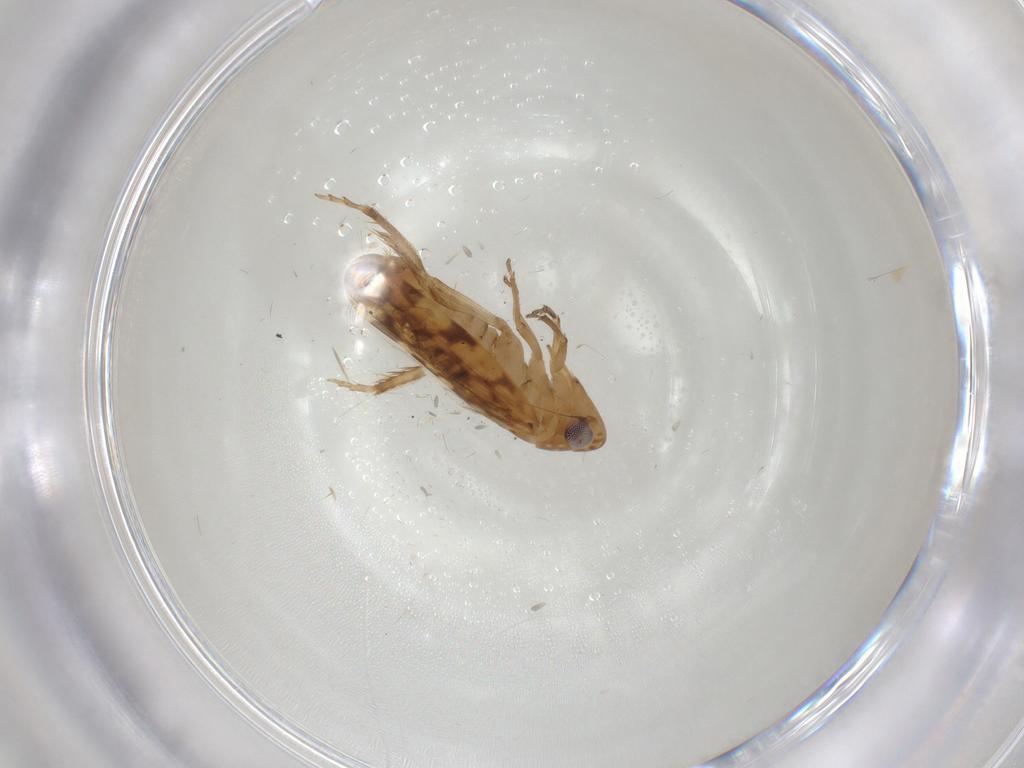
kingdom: Animalia
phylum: Arthropoda
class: Insecta
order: Hemiptera
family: Cicadellidae
